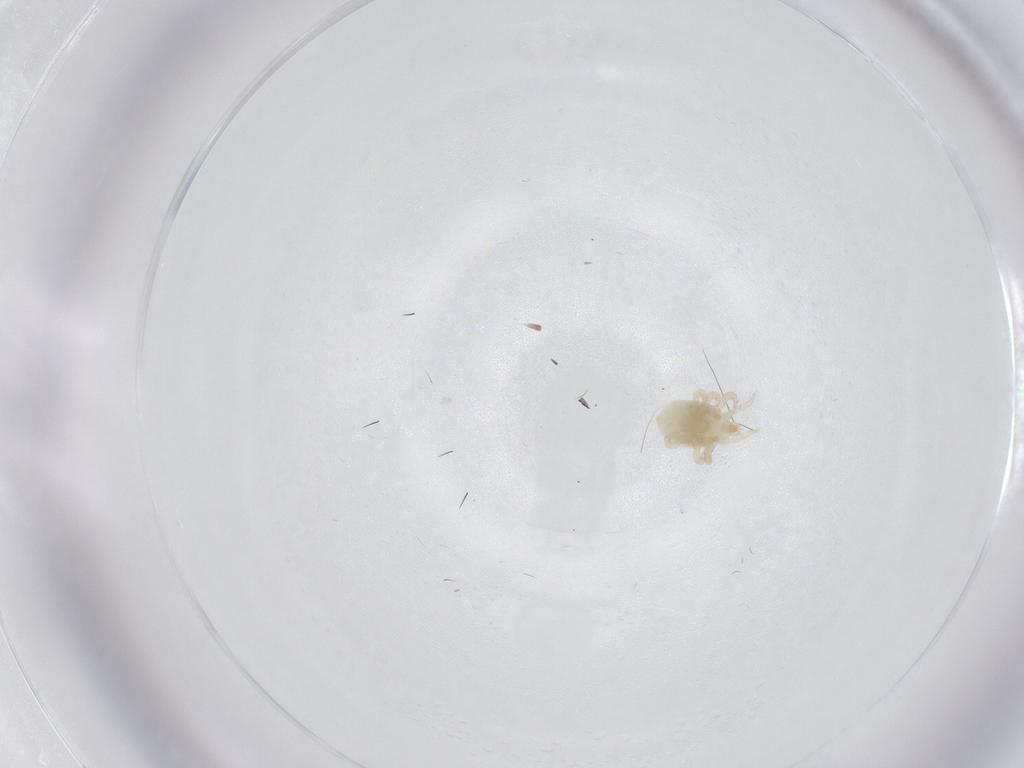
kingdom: Animalia
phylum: Arthropoda
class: Arachnida
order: Mesostigmata
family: Melicharidae
